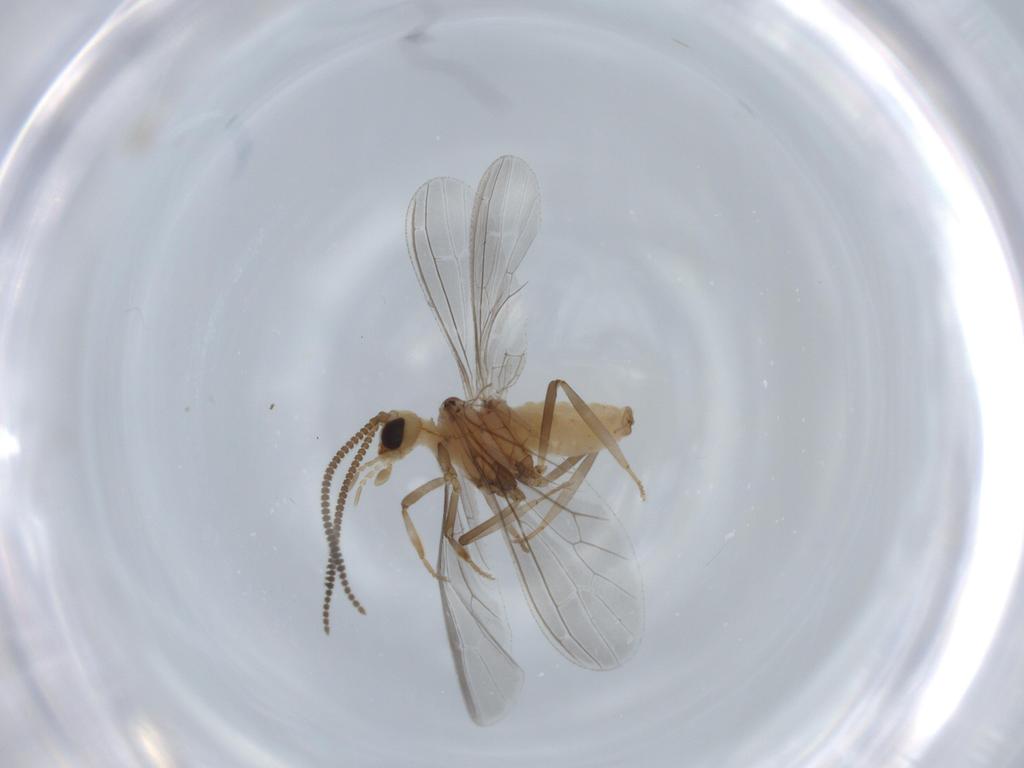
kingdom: Animalia
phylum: Arthropoda
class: Insecta
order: Neuroptera
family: Coniopterygidae
